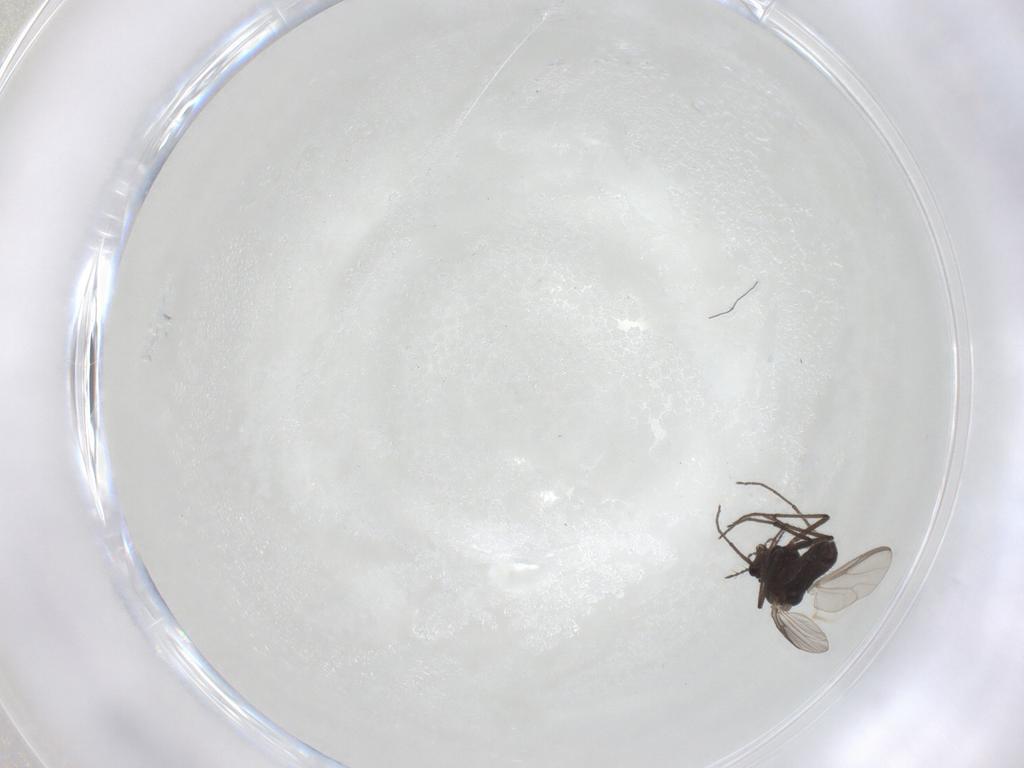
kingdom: Animalia
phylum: Arthropoda
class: Insecta
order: Diptera
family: Chironomidae
